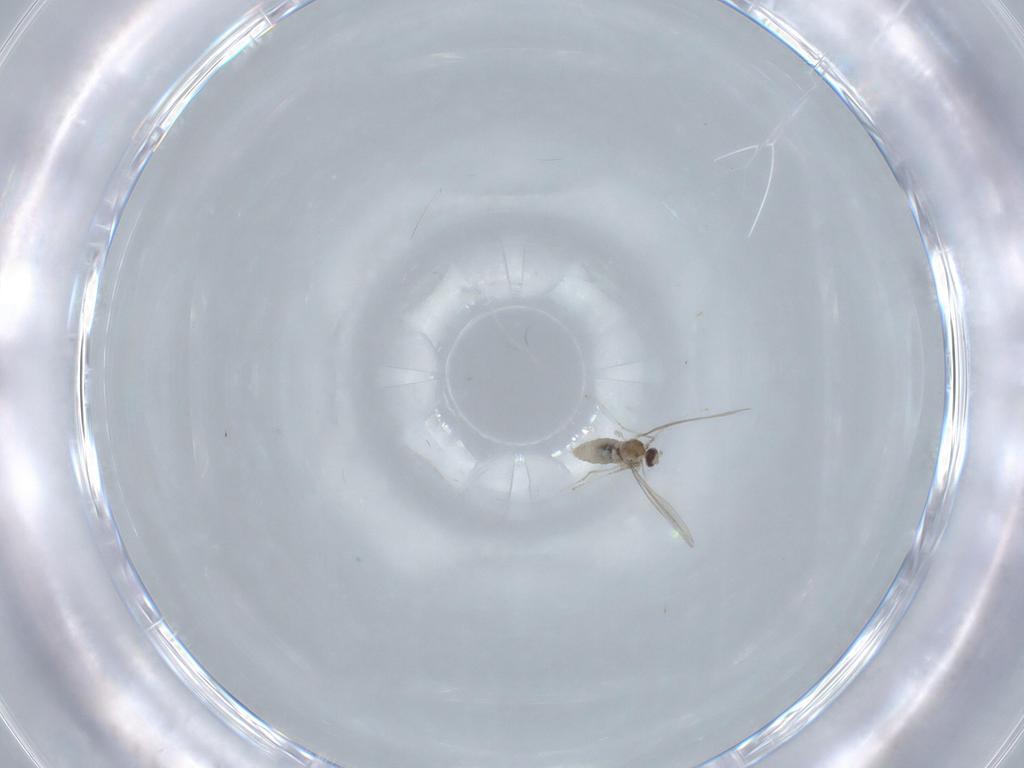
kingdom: Animalia
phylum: Arthropoda
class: Insecta
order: Diptera
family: Cecidomyiidae
